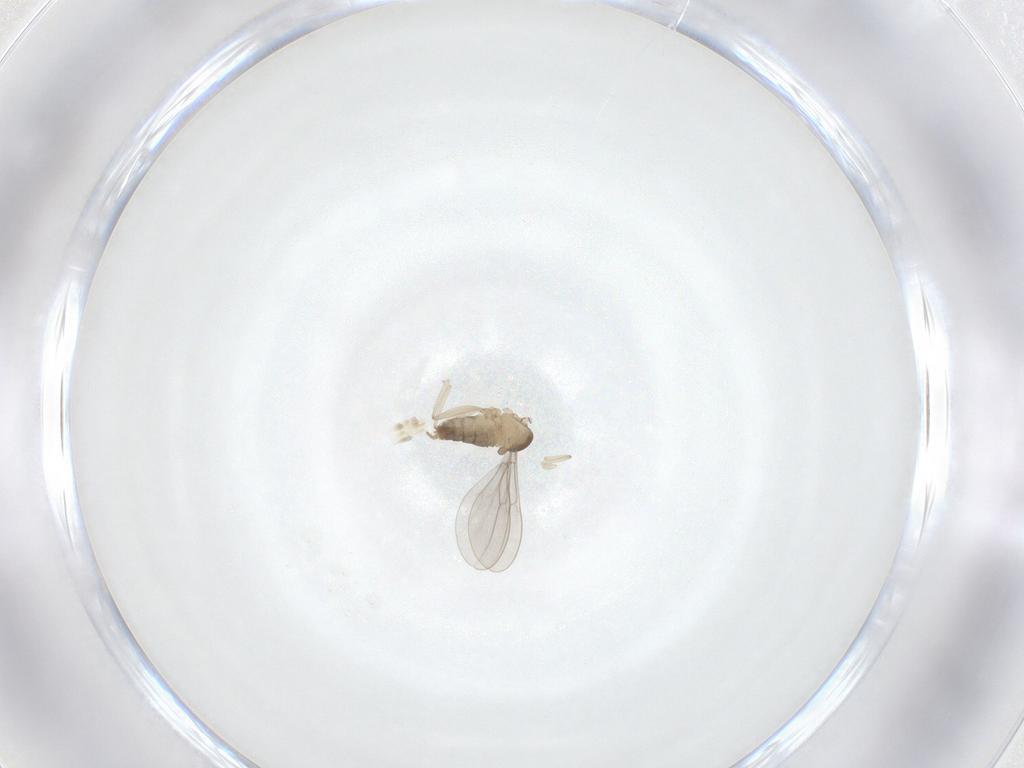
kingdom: Animalia
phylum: Arthropoda
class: Insecta
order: Diptera
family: Cecidomyiidae
